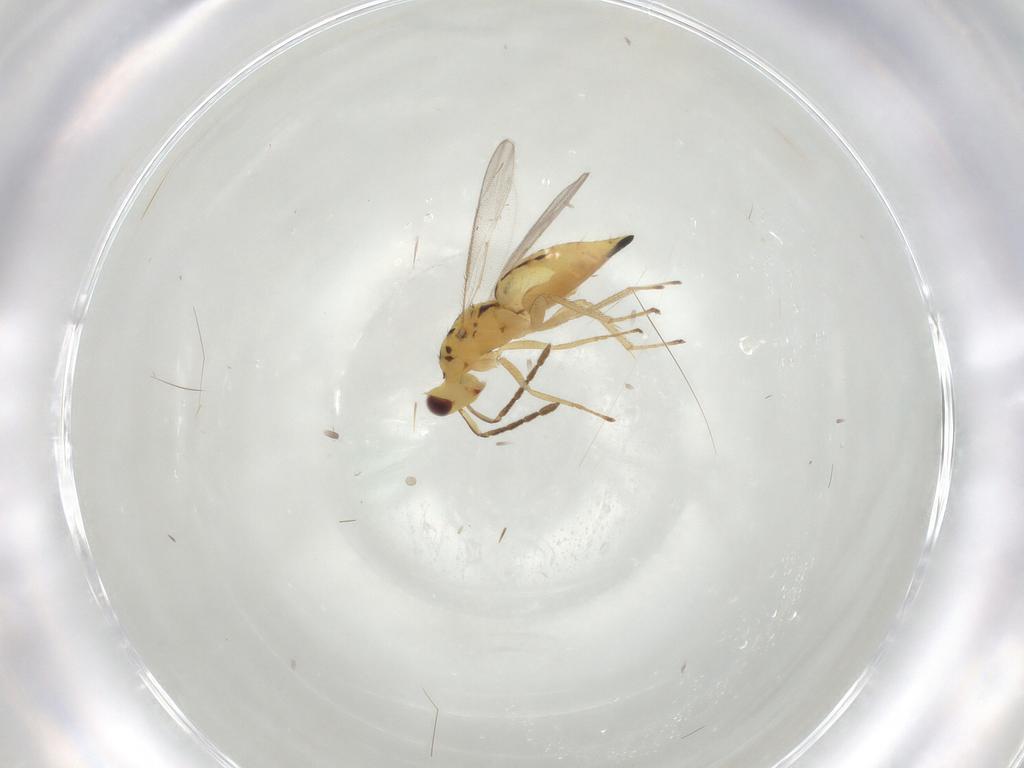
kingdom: Animalia
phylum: Arthropoda
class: Insecta
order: Hymenoptera
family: Eulophidae
